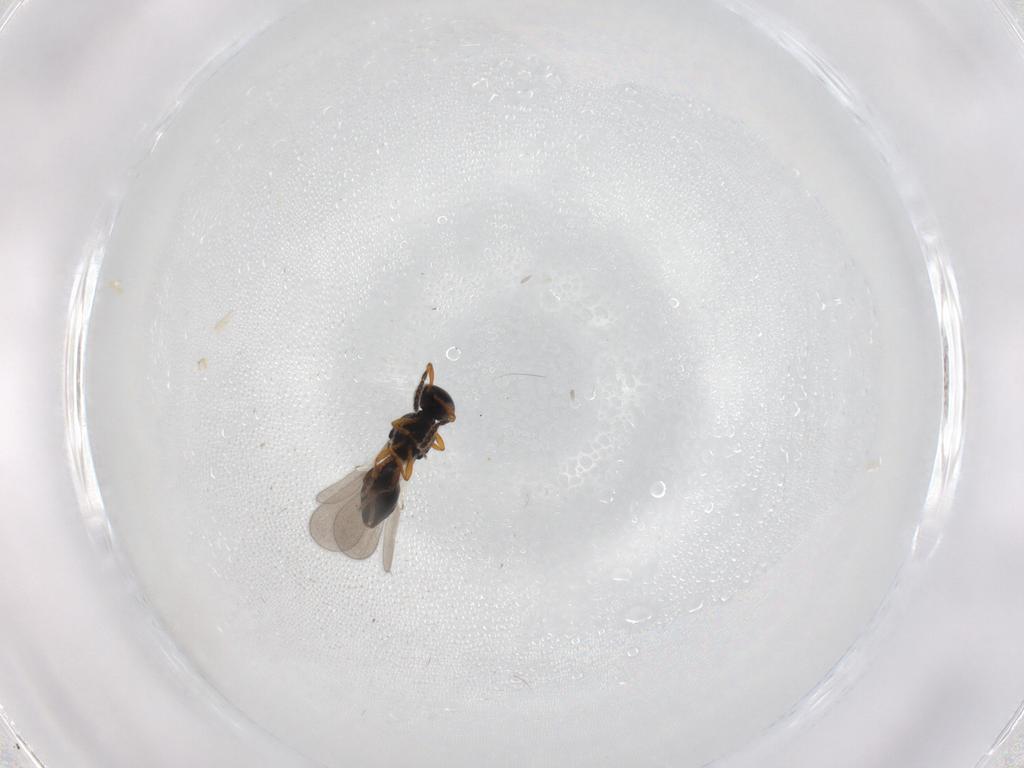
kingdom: Animalia
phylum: Arthropoda
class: Insecta
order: Hymenoptera
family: Platygastridae
